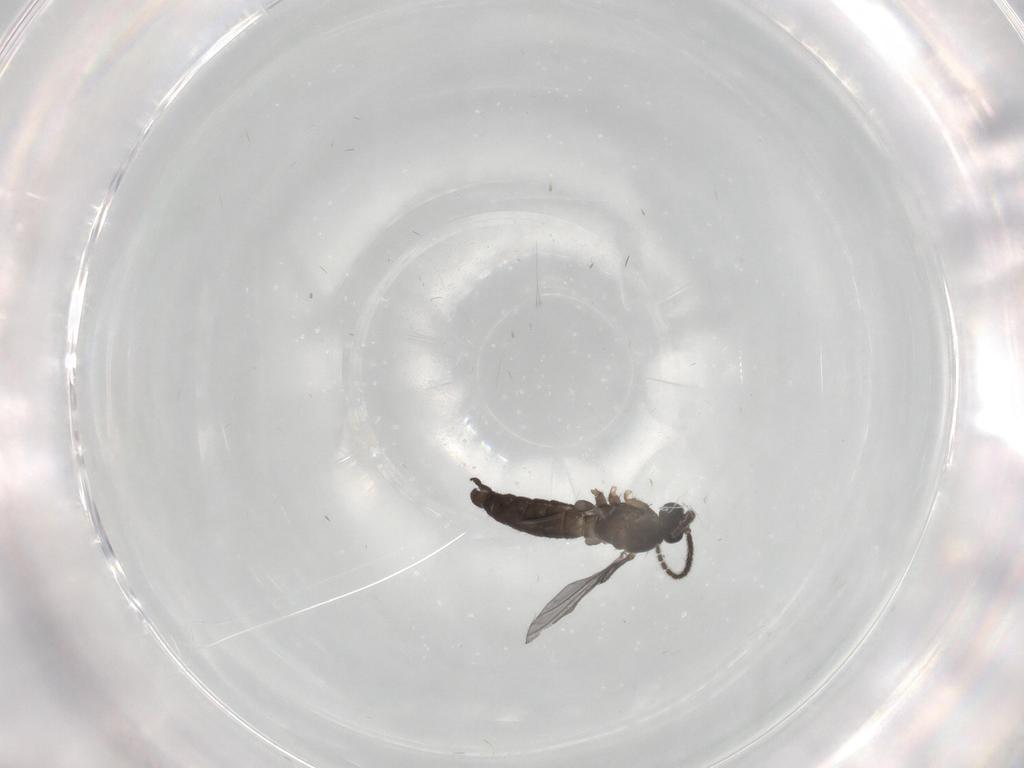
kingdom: Animalia
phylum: Arthropoda
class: Insecta
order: Diptera
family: Sciaridae
